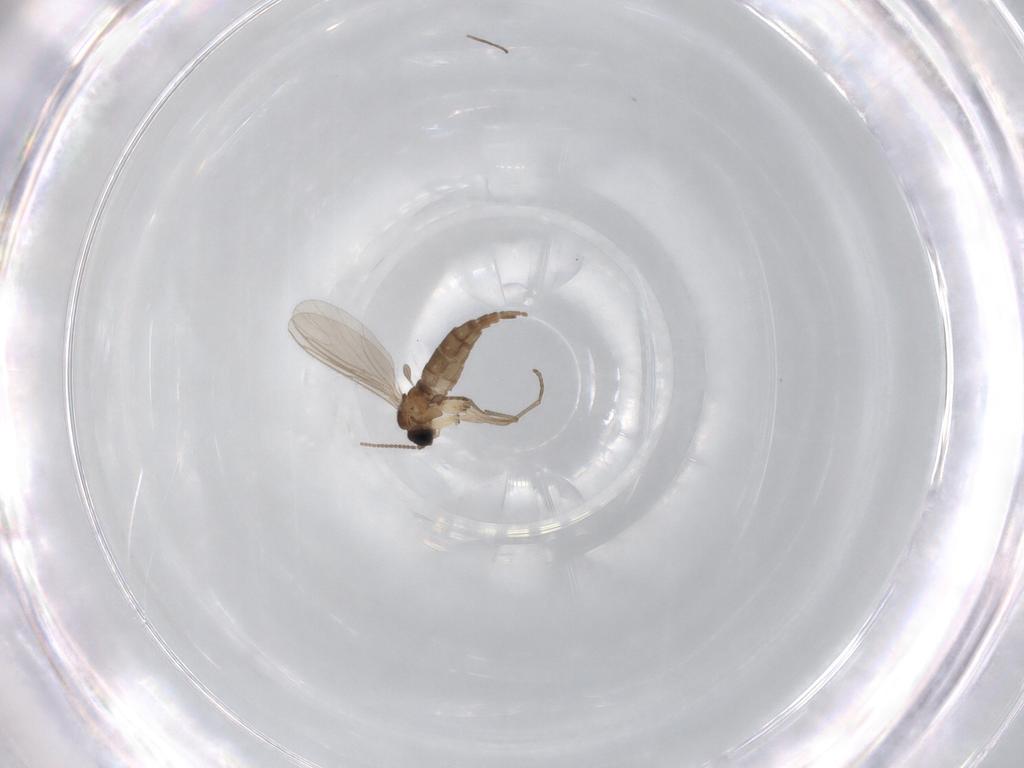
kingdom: Animalia
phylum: Arthropoda
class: Insecta
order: Diptera
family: Sciaridae
